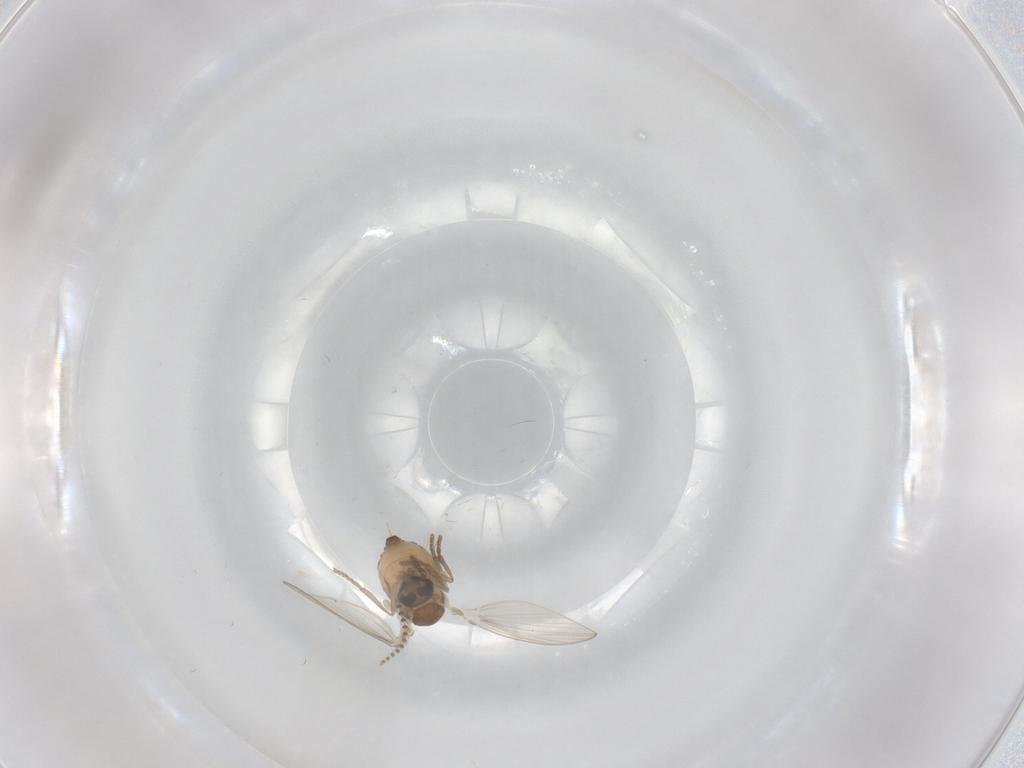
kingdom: Animalia
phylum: Arthropoda
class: Insecta
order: Diptera
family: Psychodidae
